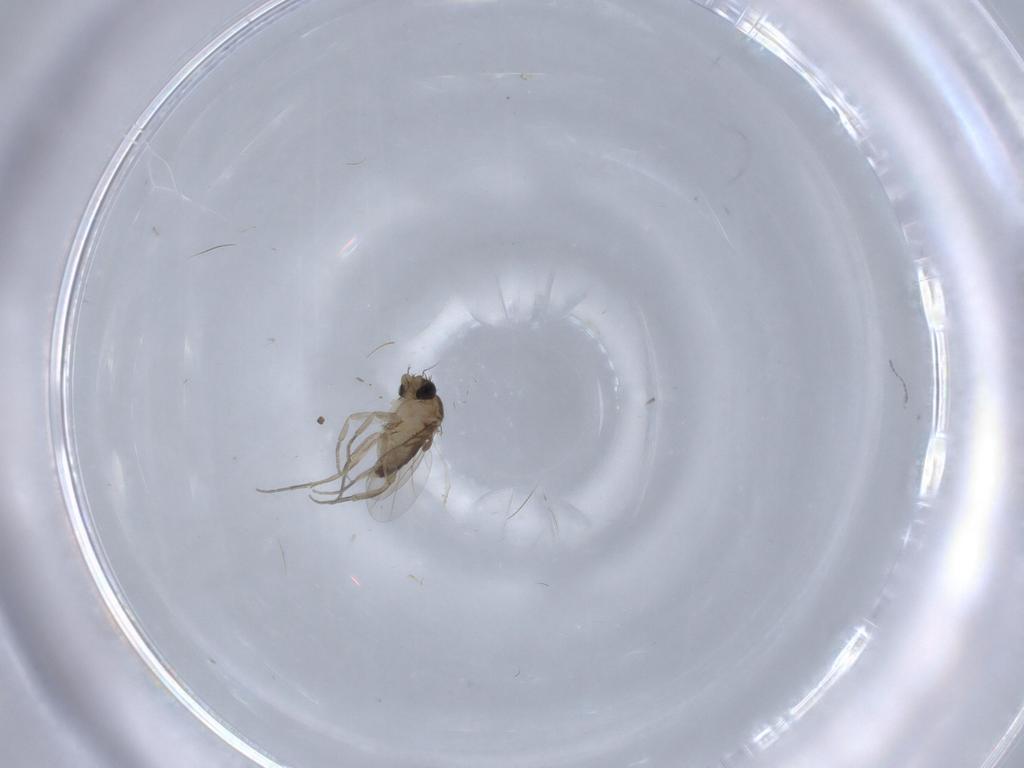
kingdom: Animalia
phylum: Arthropoda
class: Insecta
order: Diptera
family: Phoridae
